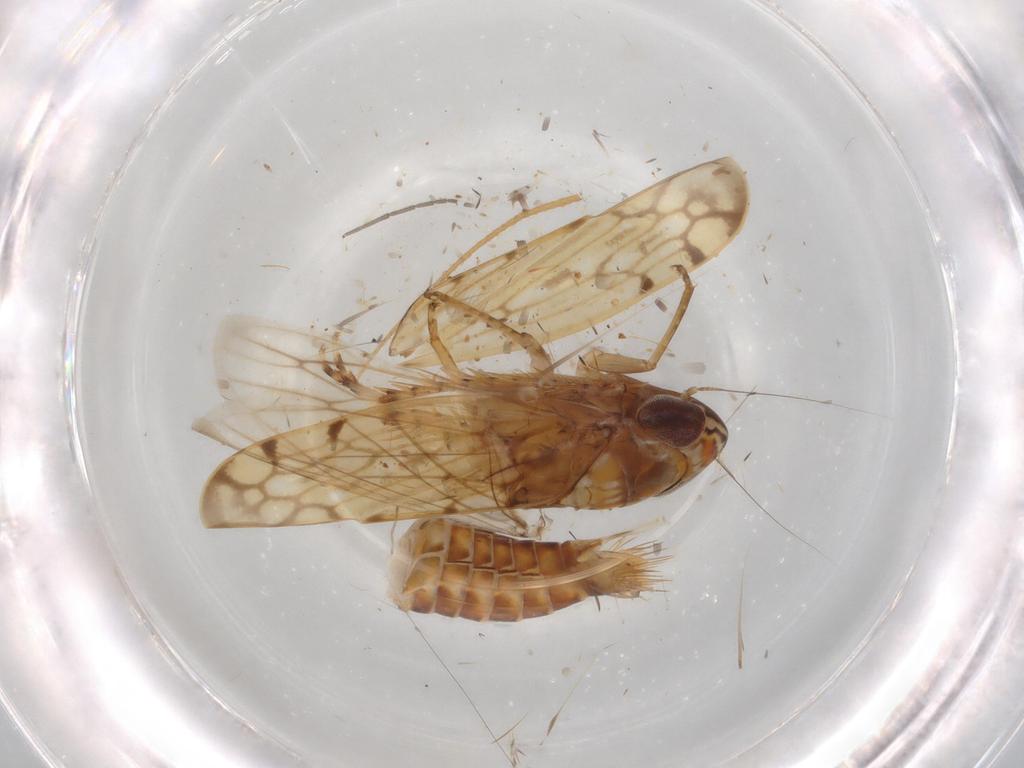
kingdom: Animalia
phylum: Arthropoda
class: Insecta
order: Hemiptera
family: Cicadellidae
